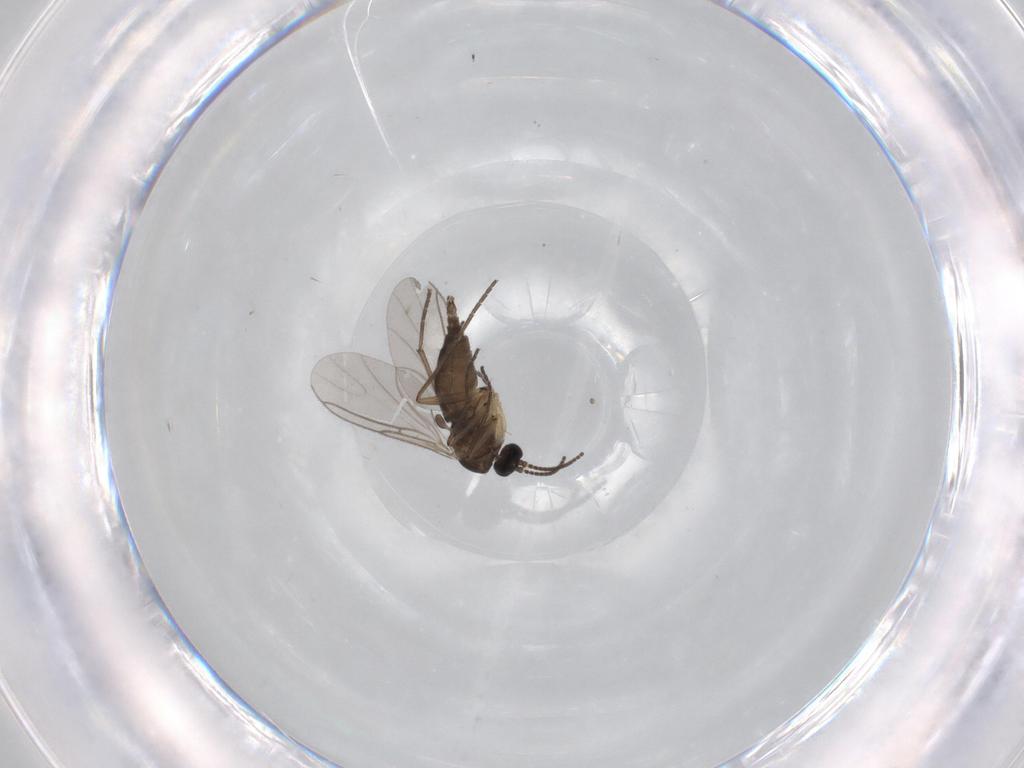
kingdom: Animalia
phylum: Arthropoda
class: Insecta
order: Diptera
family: Sciaridae
